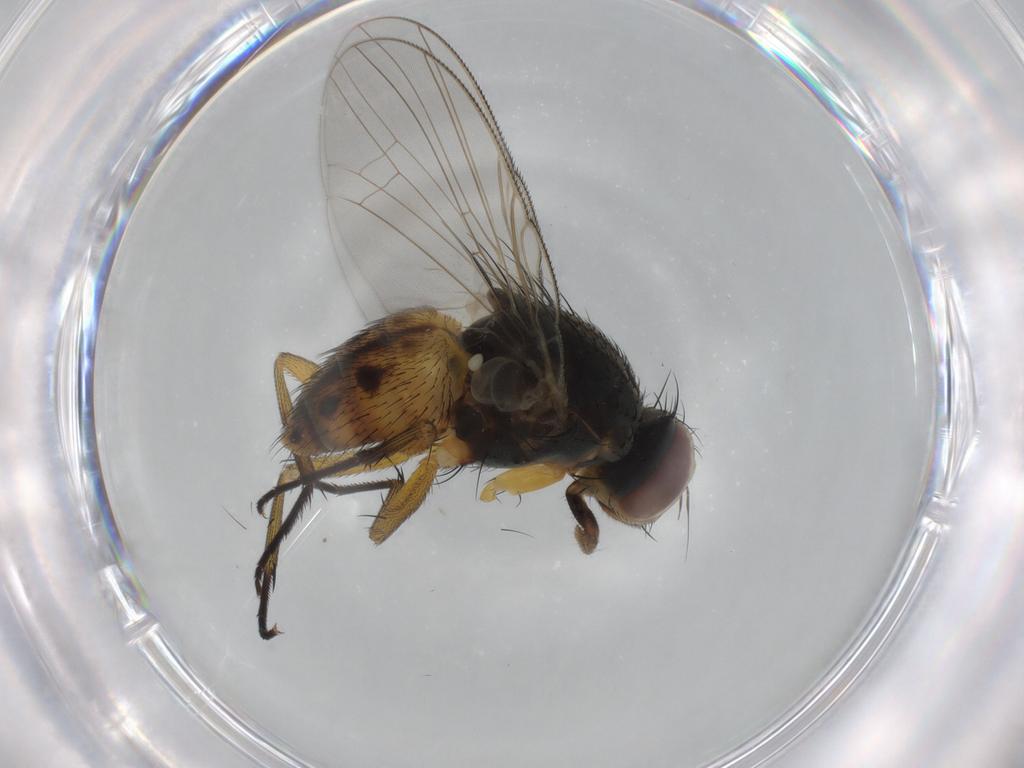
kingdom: Animalia
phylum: Arthropoda
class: Insecta
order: Diptera
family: Muscidae
